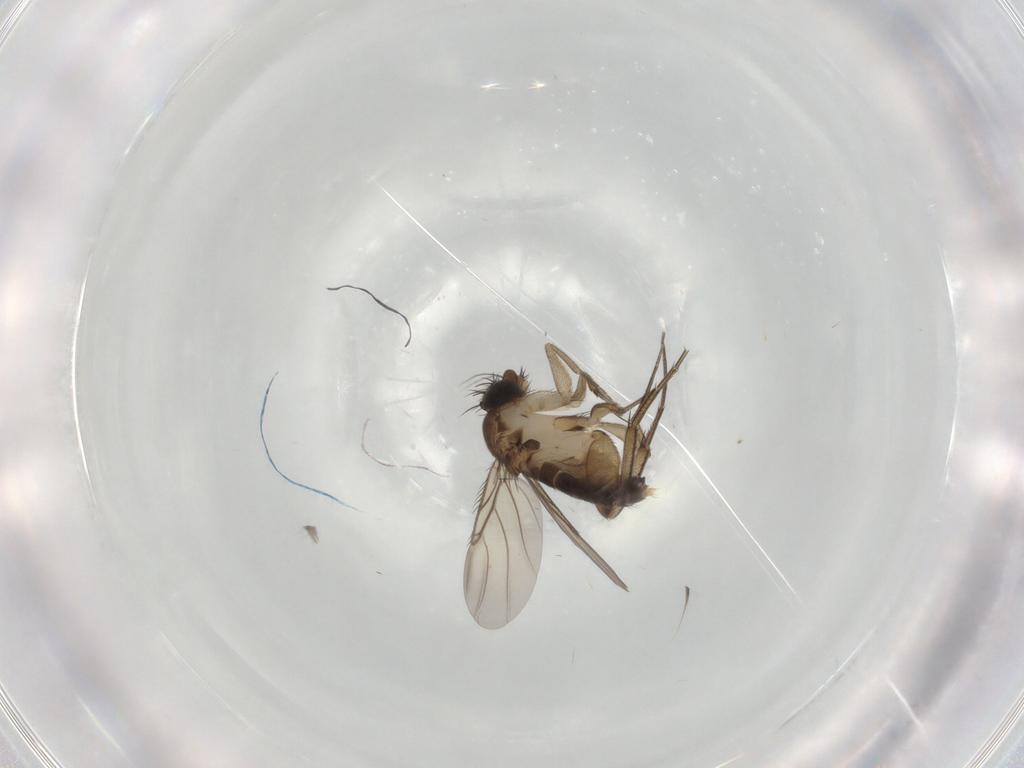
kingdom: Animalia
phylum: Arthropoda
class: Insecta
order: Diptera
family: Phoridae
